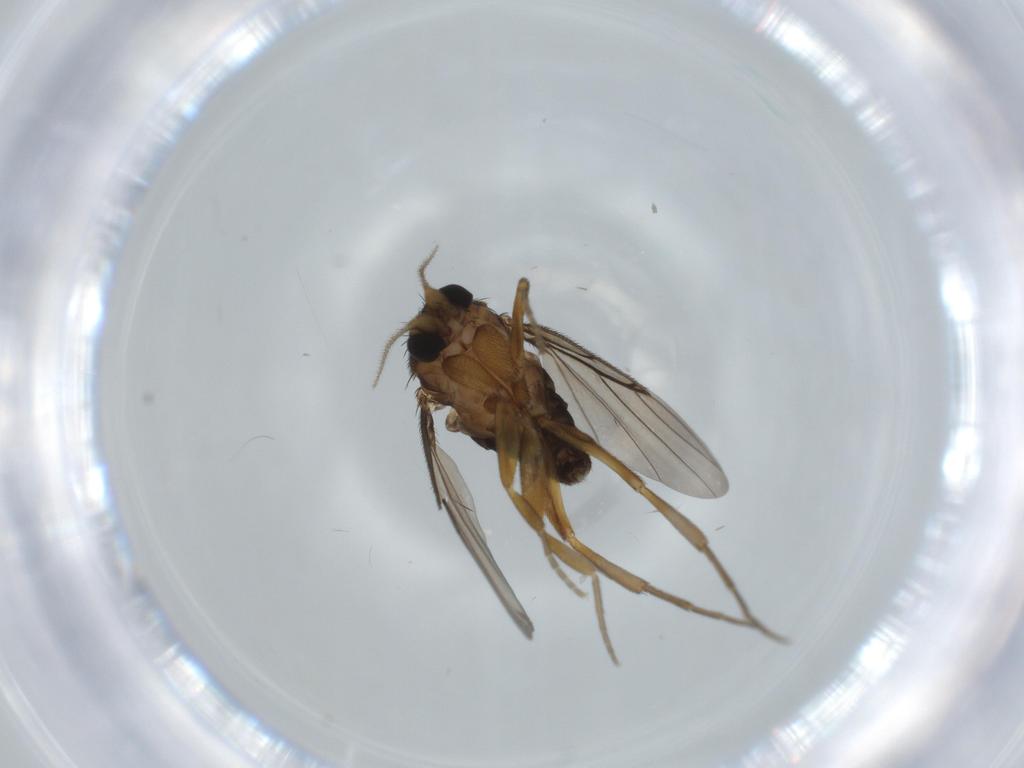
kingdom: Animalia
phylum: Arthropoda
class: Insecta
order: Diptera
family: Phoridae
